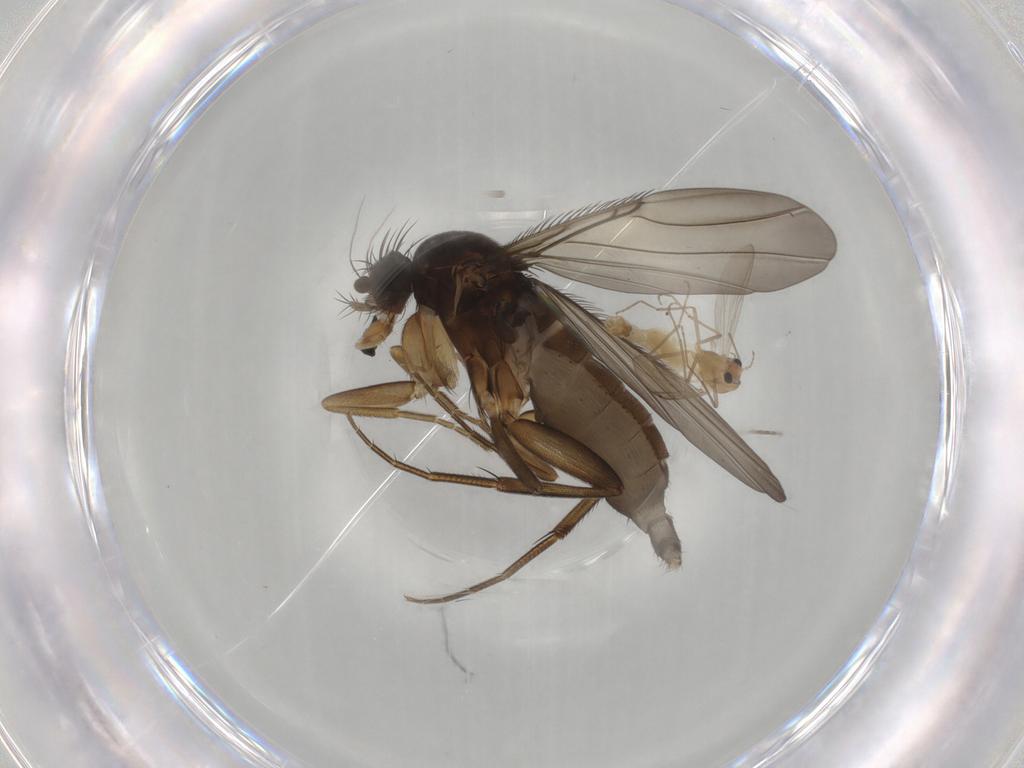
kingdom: Animalia
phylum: Arthropoda
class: Insecta
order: Diptera
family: Phoridae
